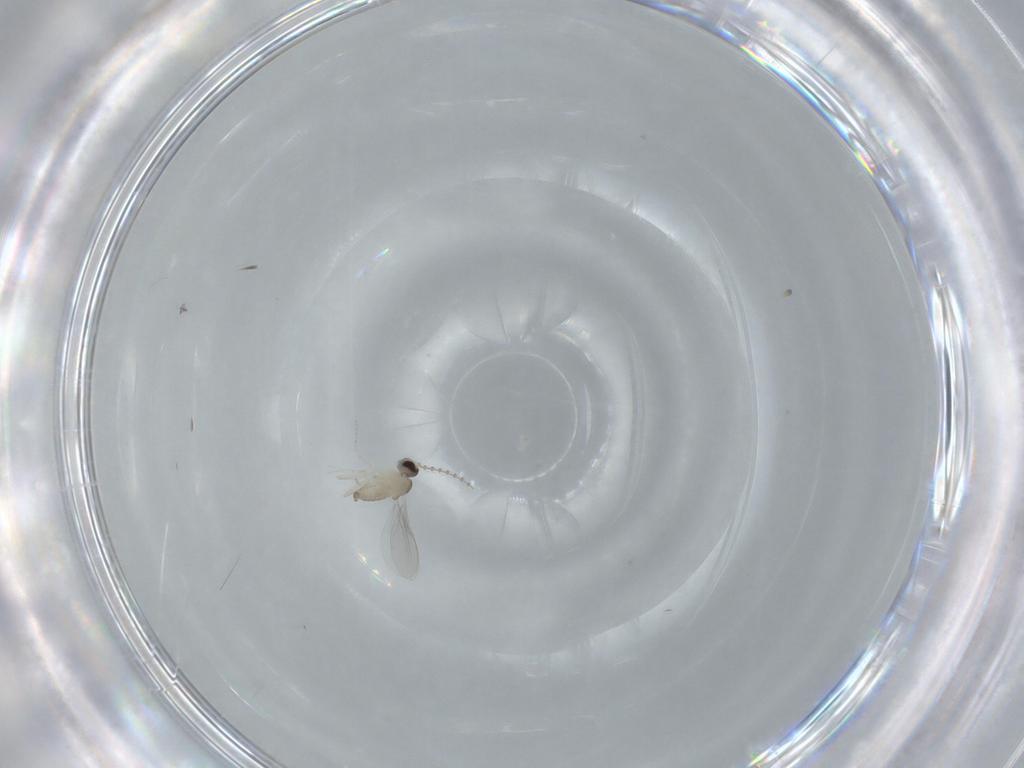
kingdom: Animalia
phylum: Arthropoda
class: Insecta
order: Diptera
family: Cecidomyiidae
